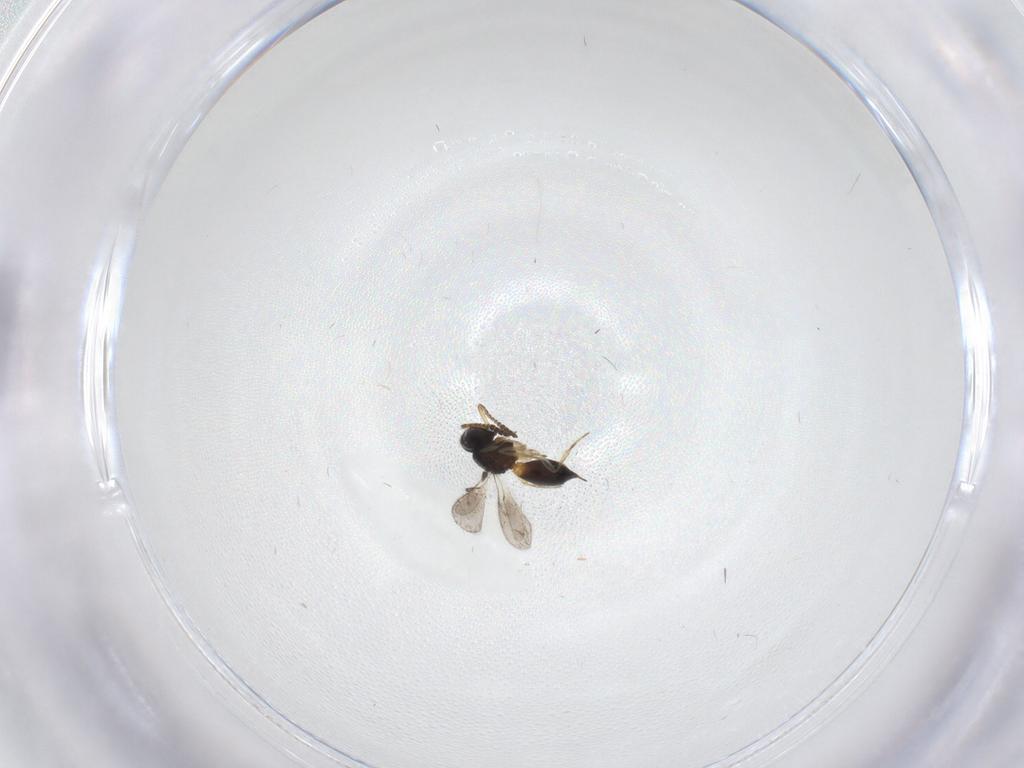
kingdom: Animalia
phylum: Arthropoda
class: Insecta
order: Hymenoptera
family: Scelionidae
